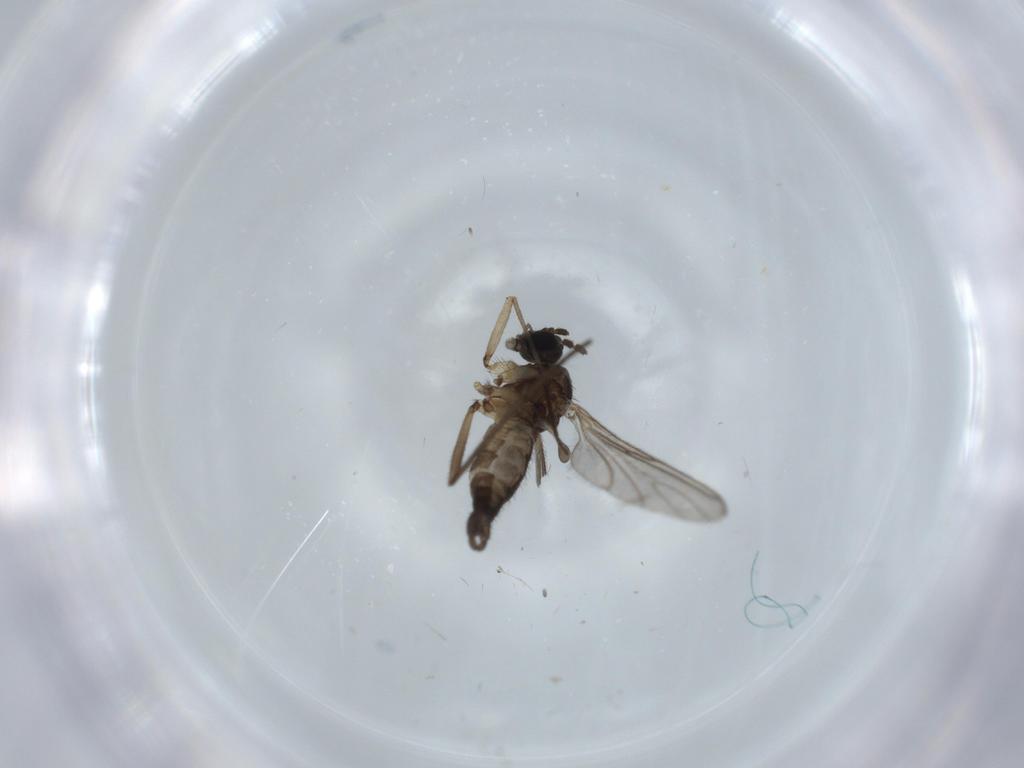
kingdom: Animalia
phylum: Arthropoda
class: Insecta
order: Diptera
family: Sciaridae
